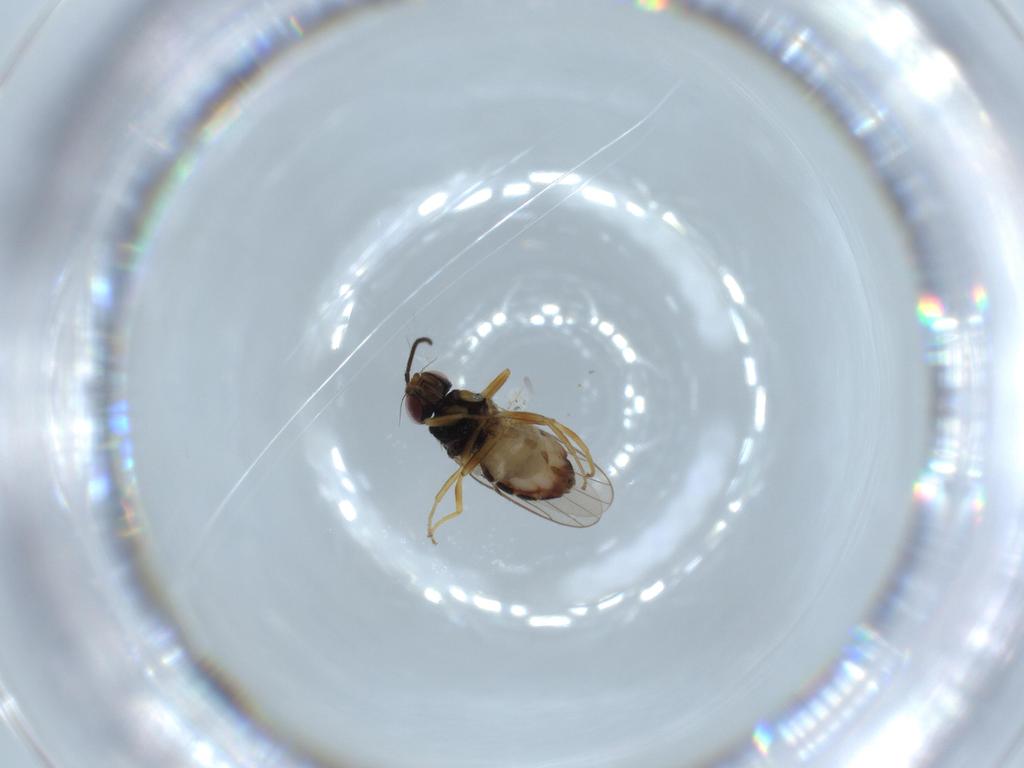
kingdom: Animalia
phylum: Arthropoda
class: Insecta
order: Diptera
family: Chloropidae
